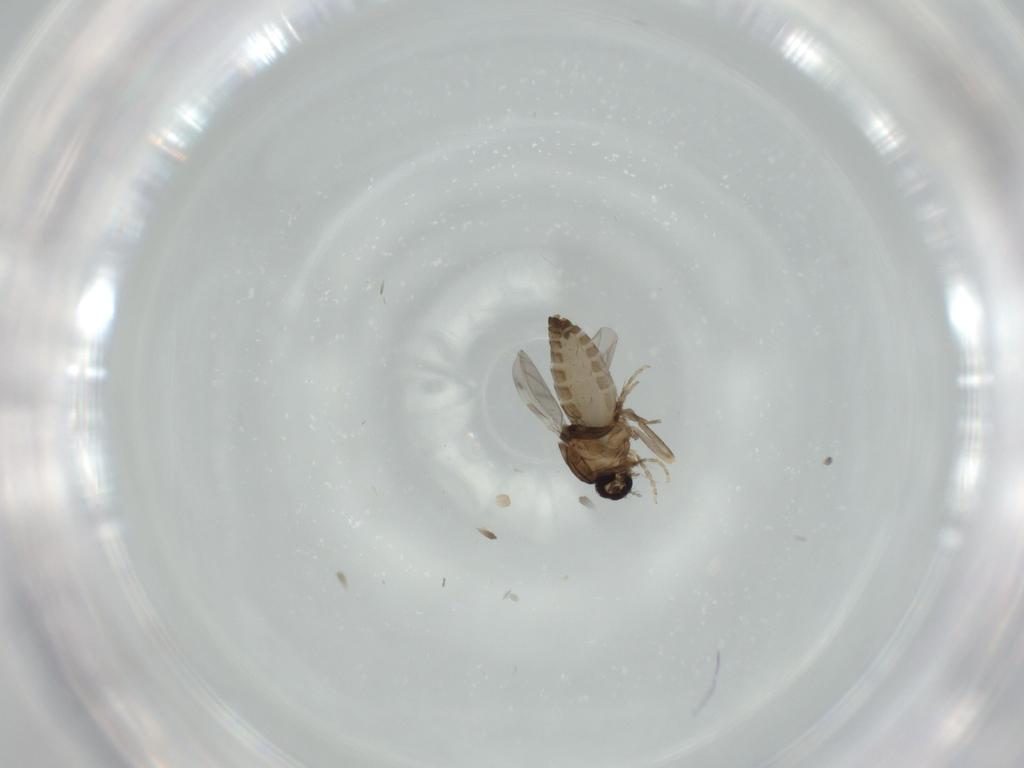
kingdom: Animalia
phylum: Arthropoda
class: Insecta
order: Diptera
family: Ceratopogonidae
